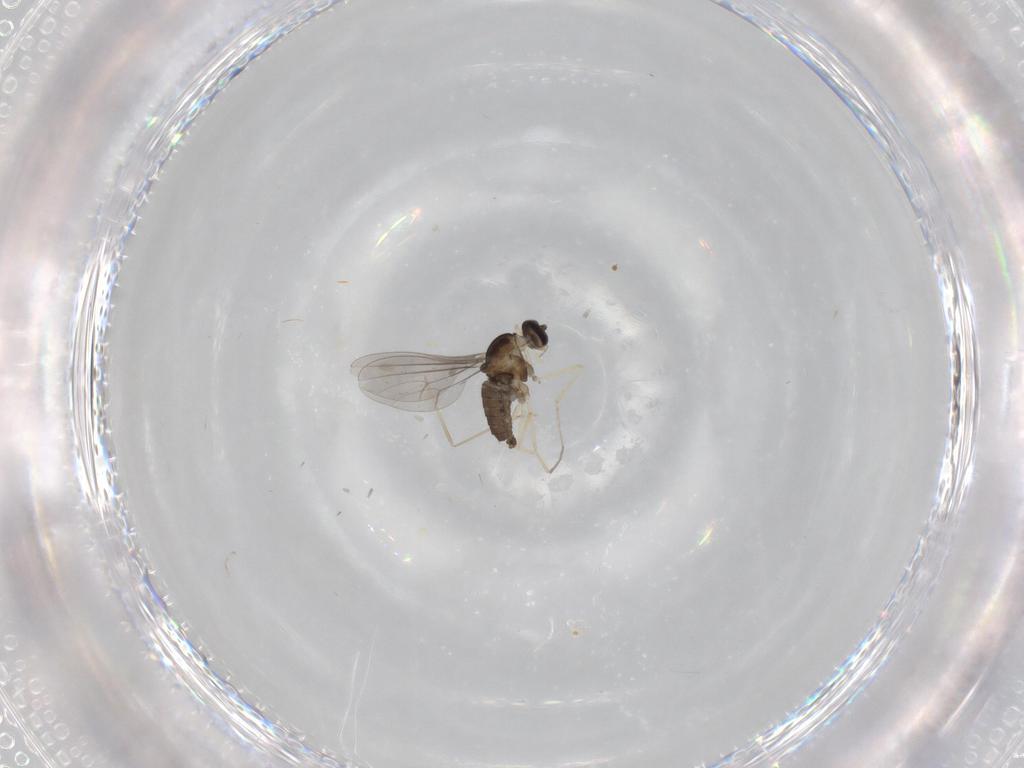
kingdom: Animalia
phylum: Arthropoda
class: Insecta
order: Diptera
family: Cecidomyiidae
